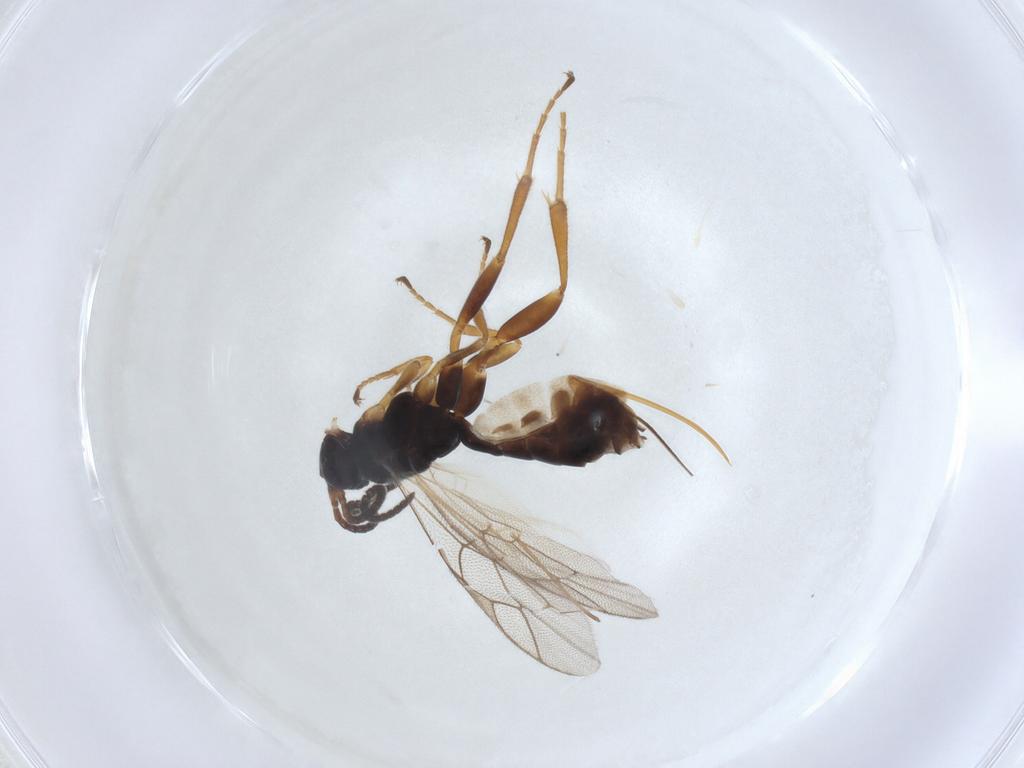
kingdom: Animalia
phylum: Arthropoda
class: Insecta
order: Hymenoptera
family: Ichneumonidae
